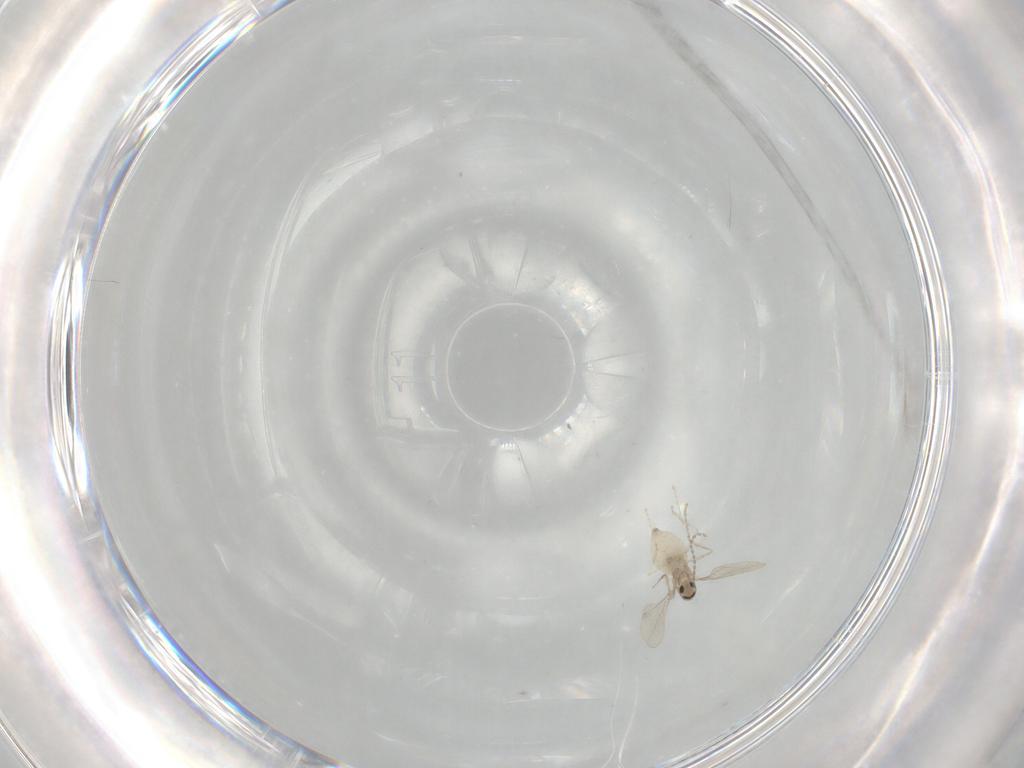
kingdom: Animalia
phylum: Arthropoda
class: Insecta
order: Diptera
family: Cecidomyiidae
